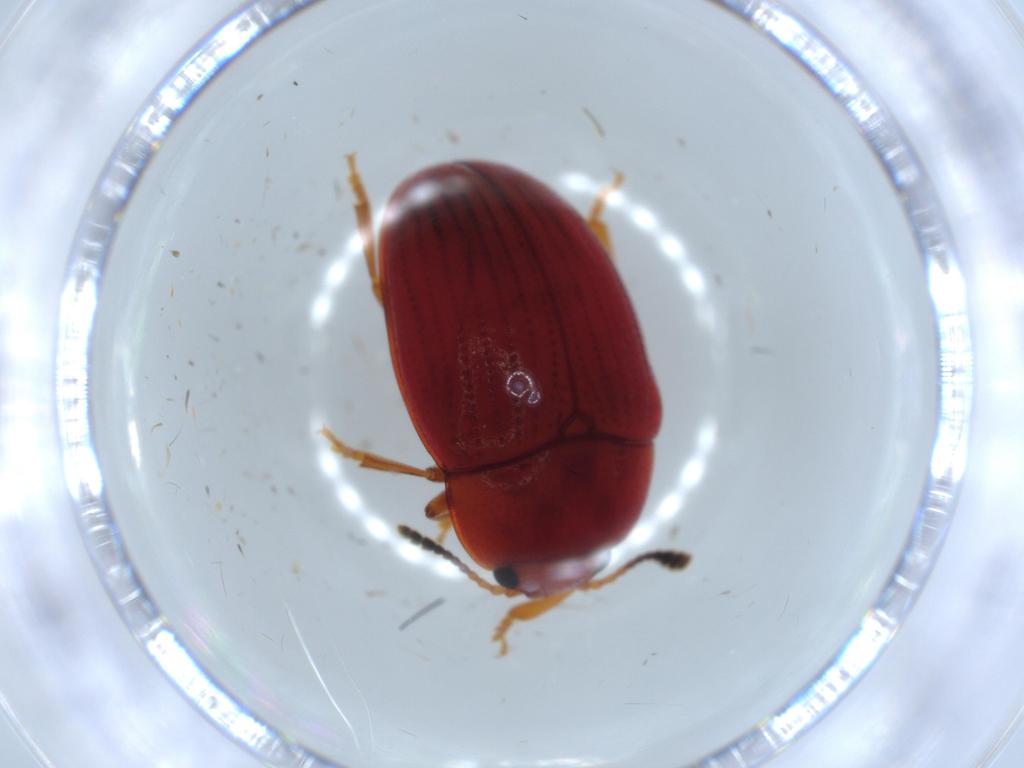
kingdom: Animalia
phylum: Arthropoda
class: Insecta
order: Coleoptera
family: Cantharidae
